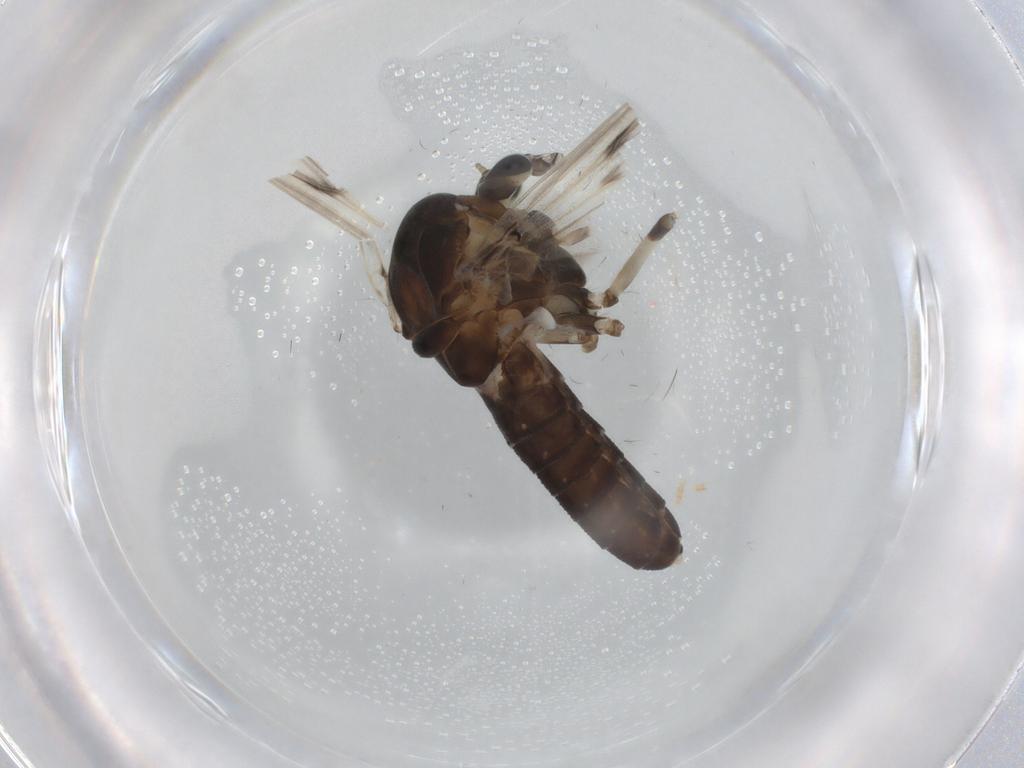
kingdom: Animalia
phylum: Arthropoda
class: Insecta
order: Diptera
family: Chironomidae
